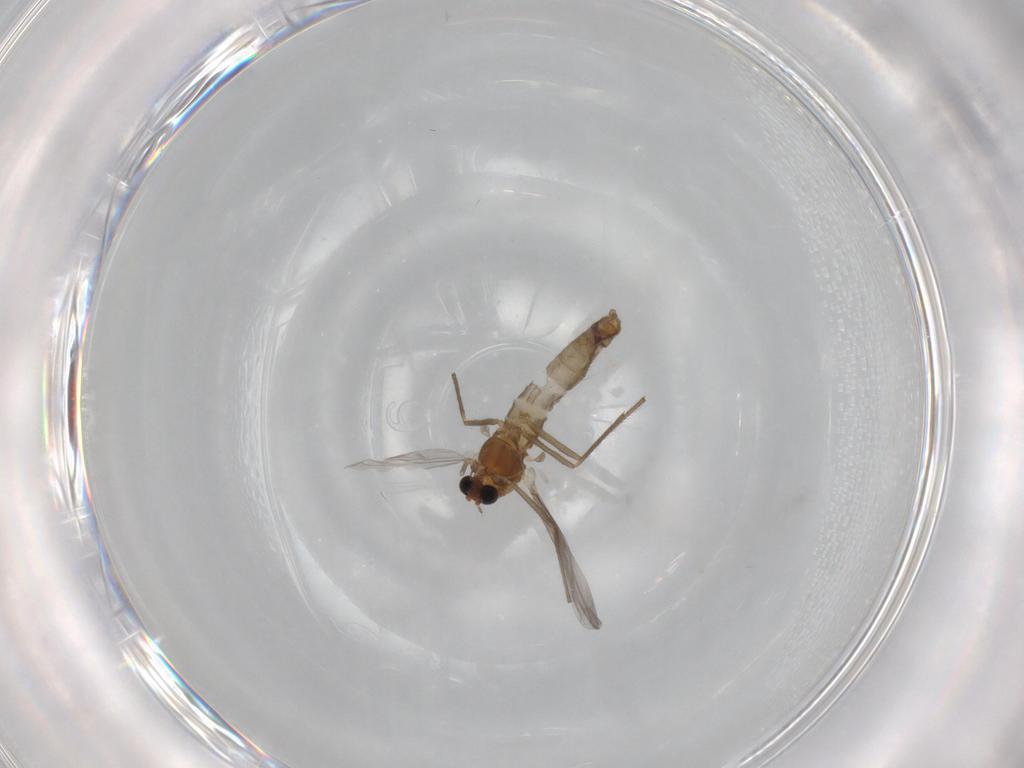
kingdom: Animalia
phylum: Arthropoda
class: Insecta
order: Diptera
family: Chironomidae
